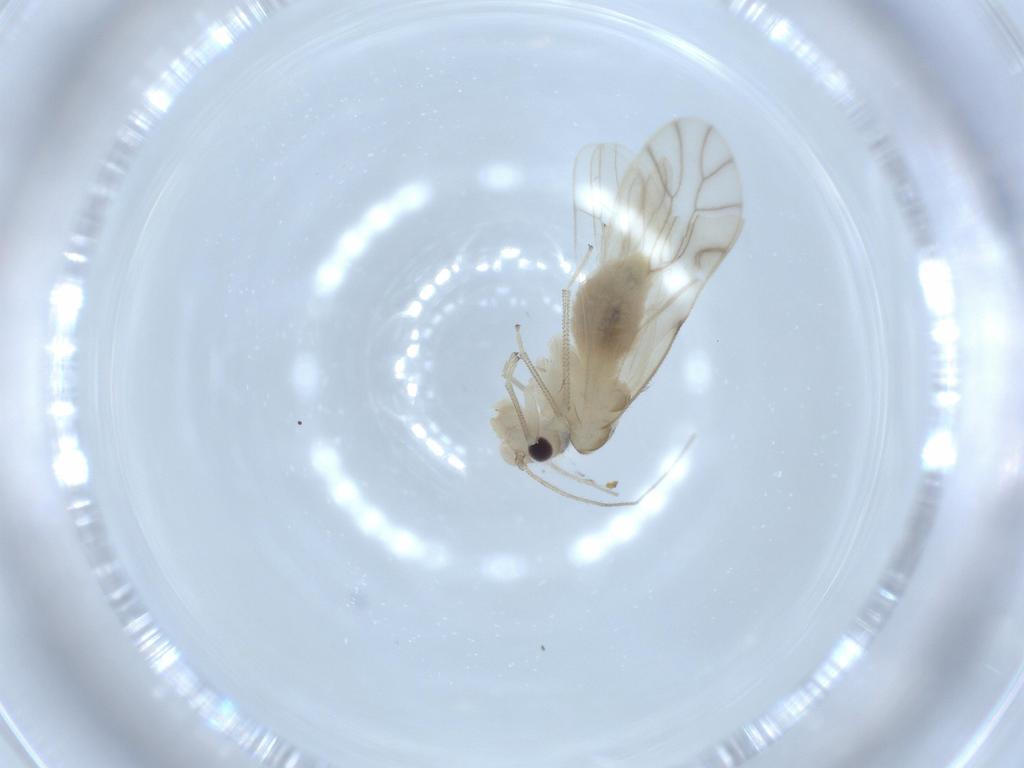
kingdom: Animalia
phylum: Arthropoda
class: Insecta
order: Psocodea
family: Caeciliusidae
